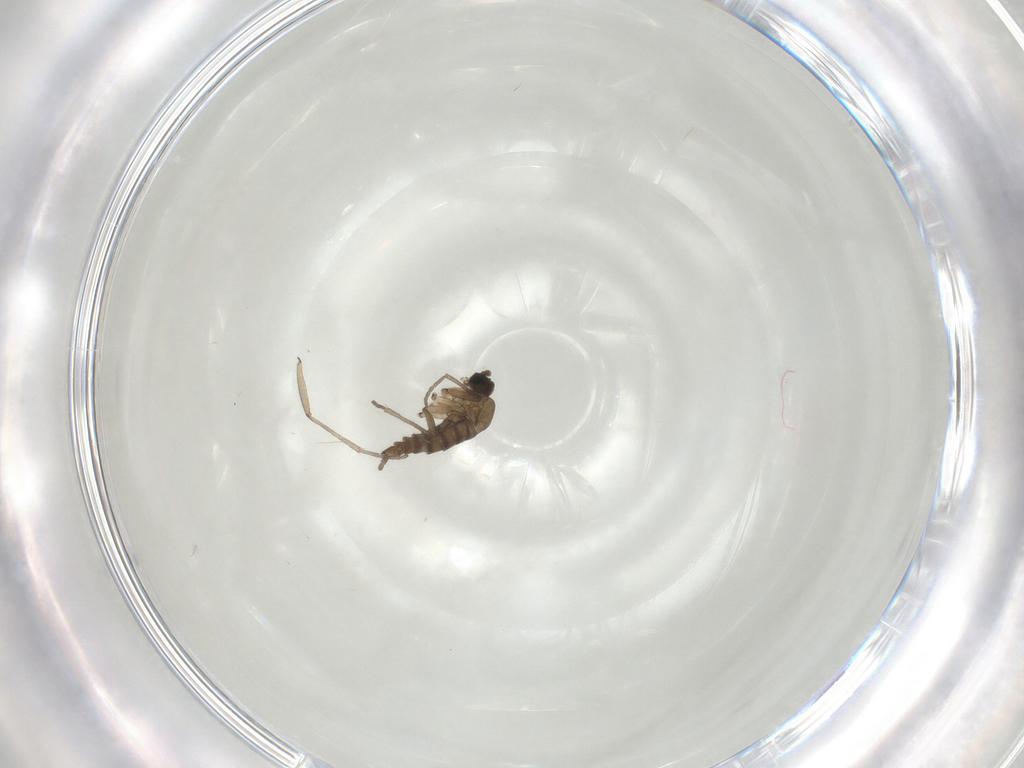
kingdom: Animalia
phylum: Arthropoda
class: Insecta
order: Diptera
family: Sciaridae
